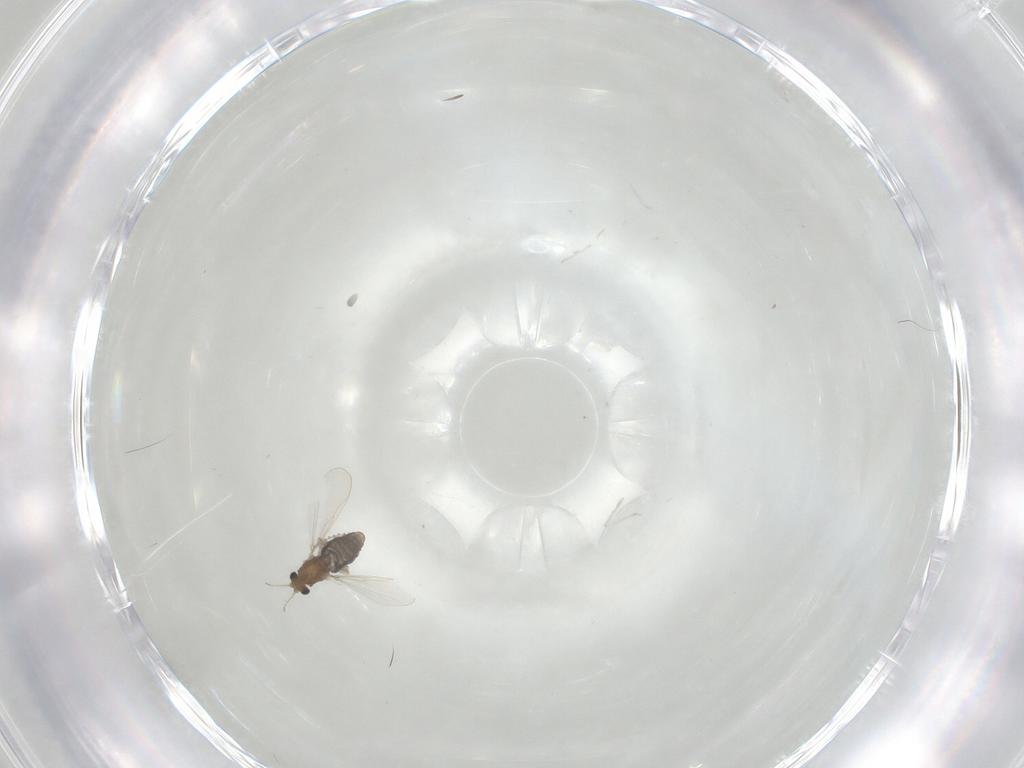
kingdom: Animalia
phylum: Arthropoda
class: Insecta
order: Diptera
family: Chironomidae
